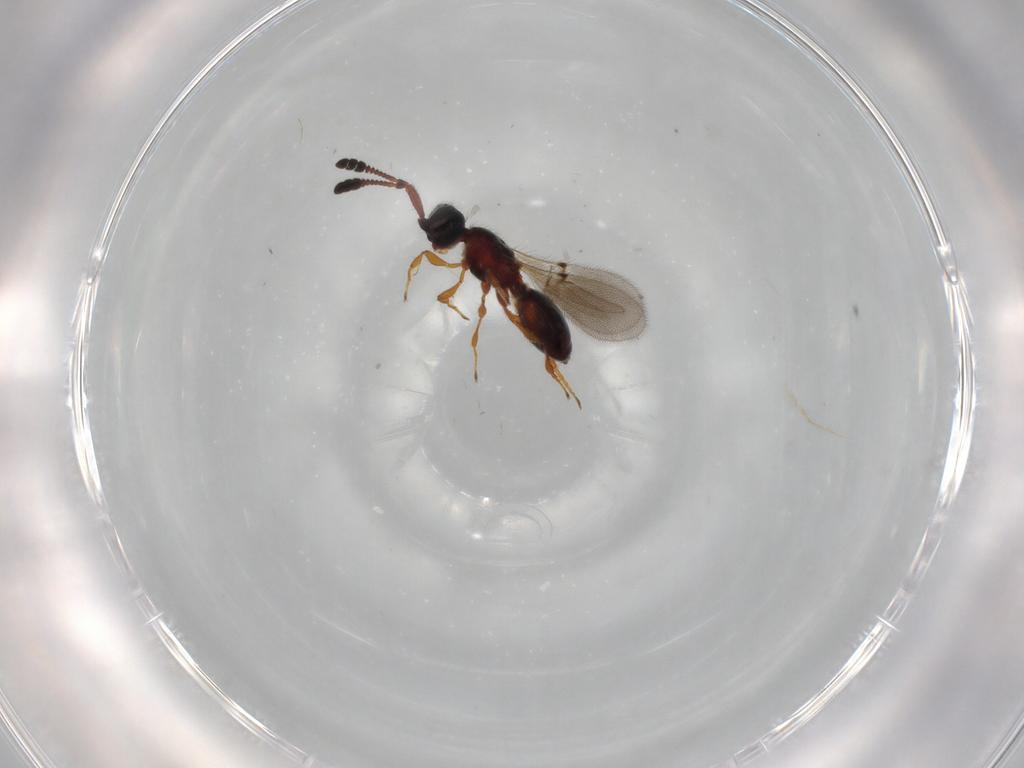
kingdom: Animalia
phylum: Arthropoda
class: Insecta
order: Hymenoptera
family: Diapriidae
